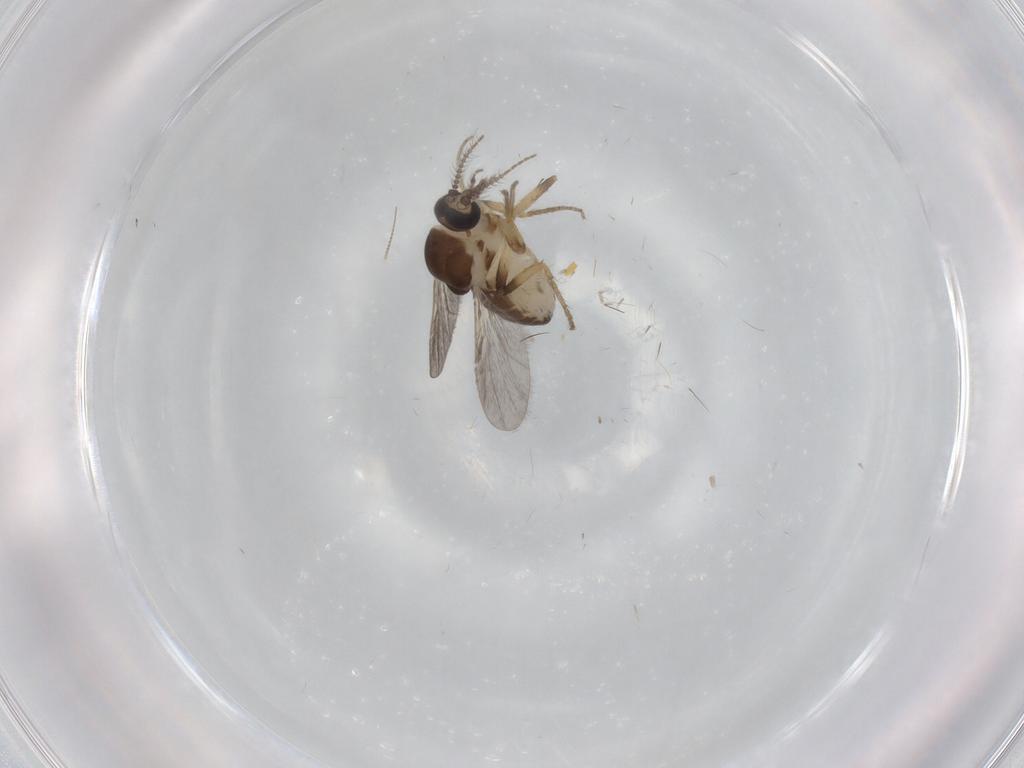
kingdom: Animalia
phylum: Arthropoda
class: Insecta
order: Diptera
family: Ceratopogonidae
